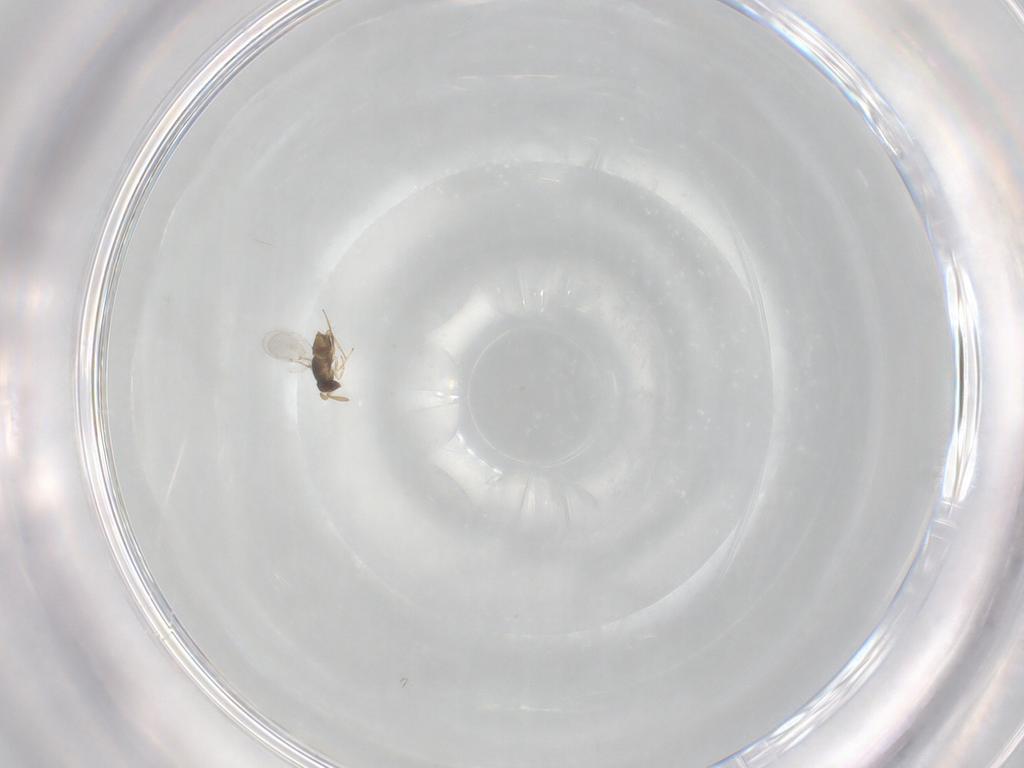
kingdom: Animalia
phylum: Arthropoda
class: Insecta
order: Hymenoptera
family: Encyrtidae
